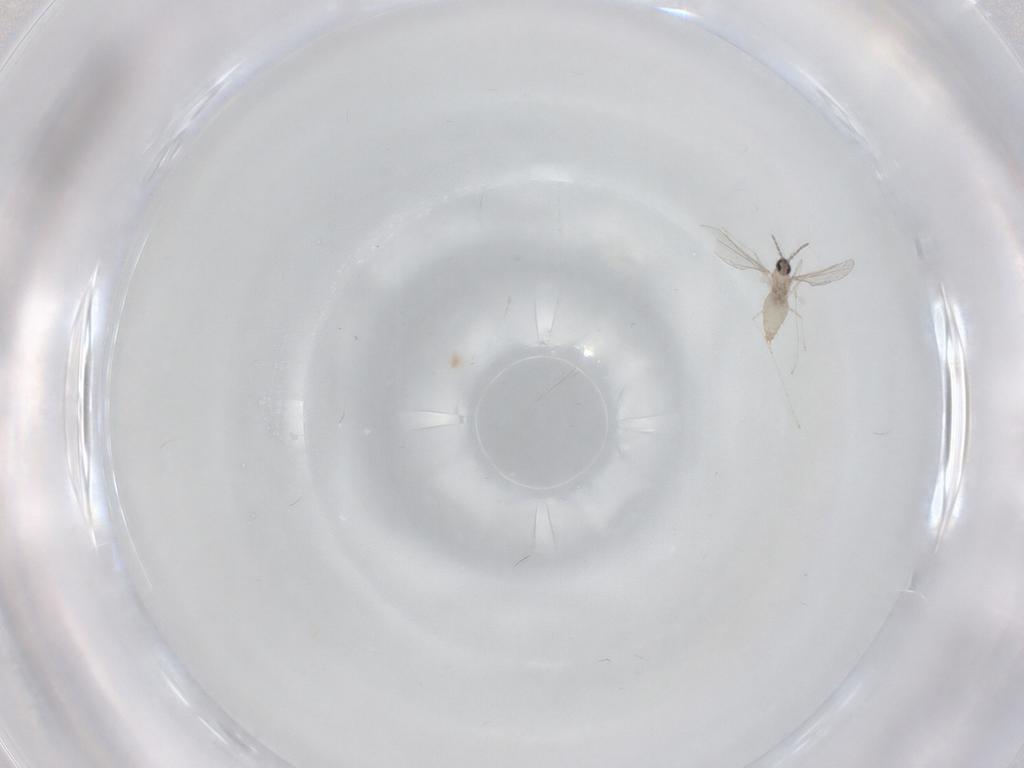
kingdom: Animalia
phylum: Arthropoda
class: Insecta
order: Diptera
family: Cecidomyiidae
